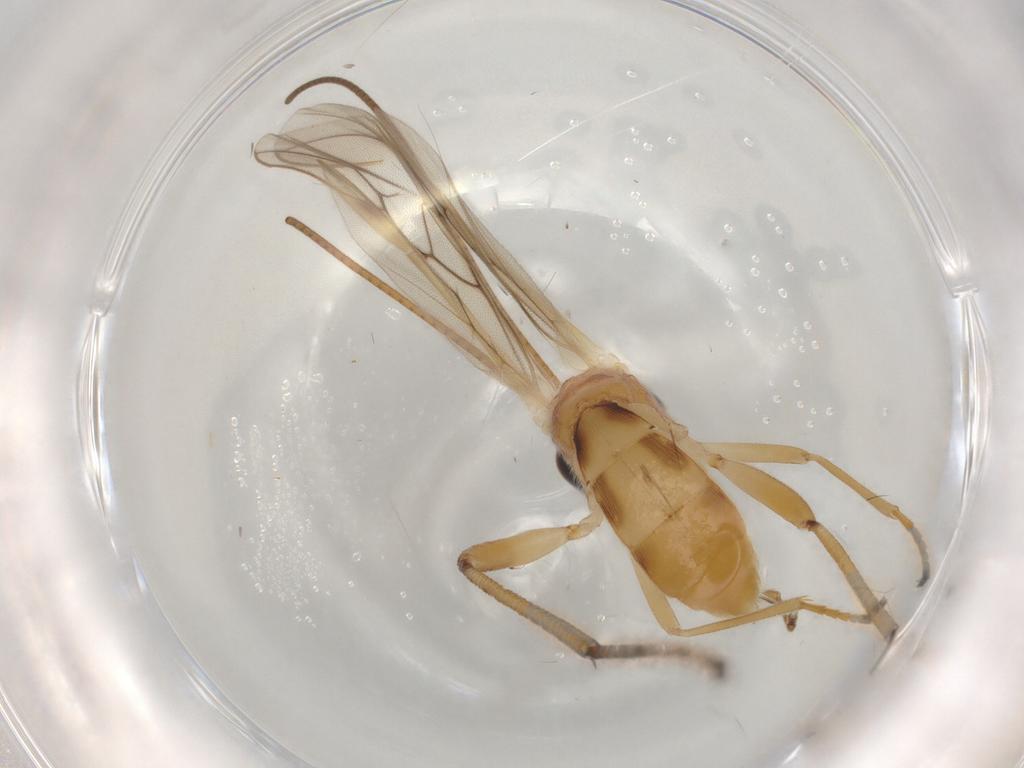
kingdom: Animalia
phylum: Arthropoda
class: Insecta
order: Hymenoptera
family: Braconidae
